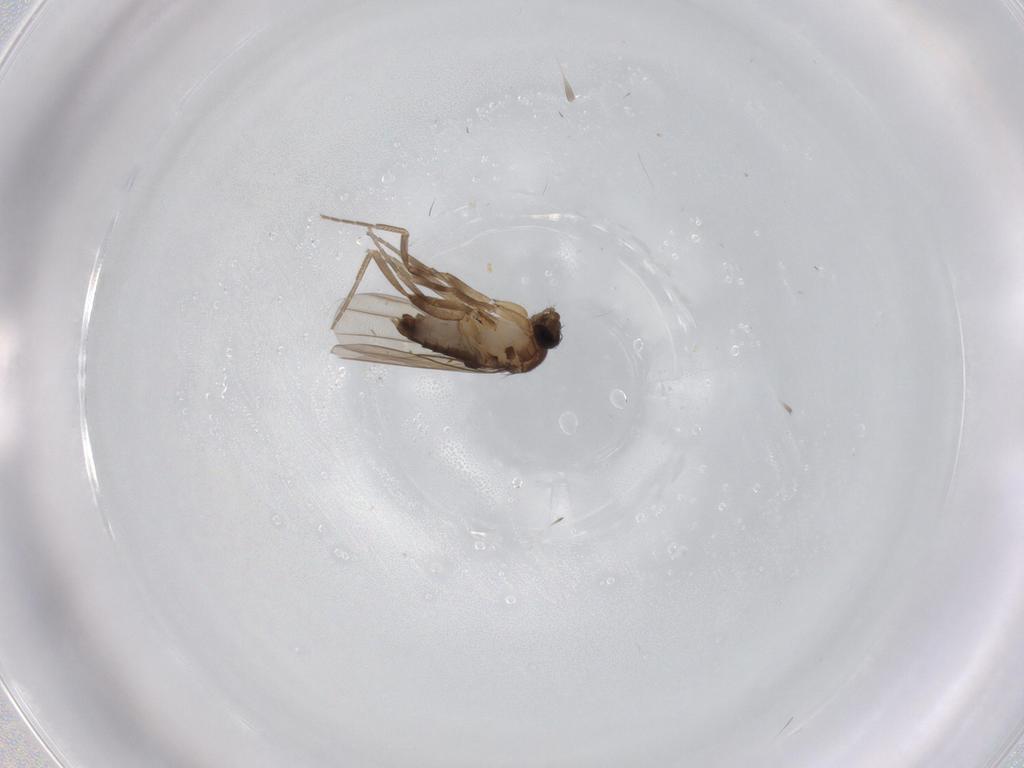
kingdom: Animalia
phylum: Arthropoda
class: Insecta
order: Diptera
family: Phoridae
